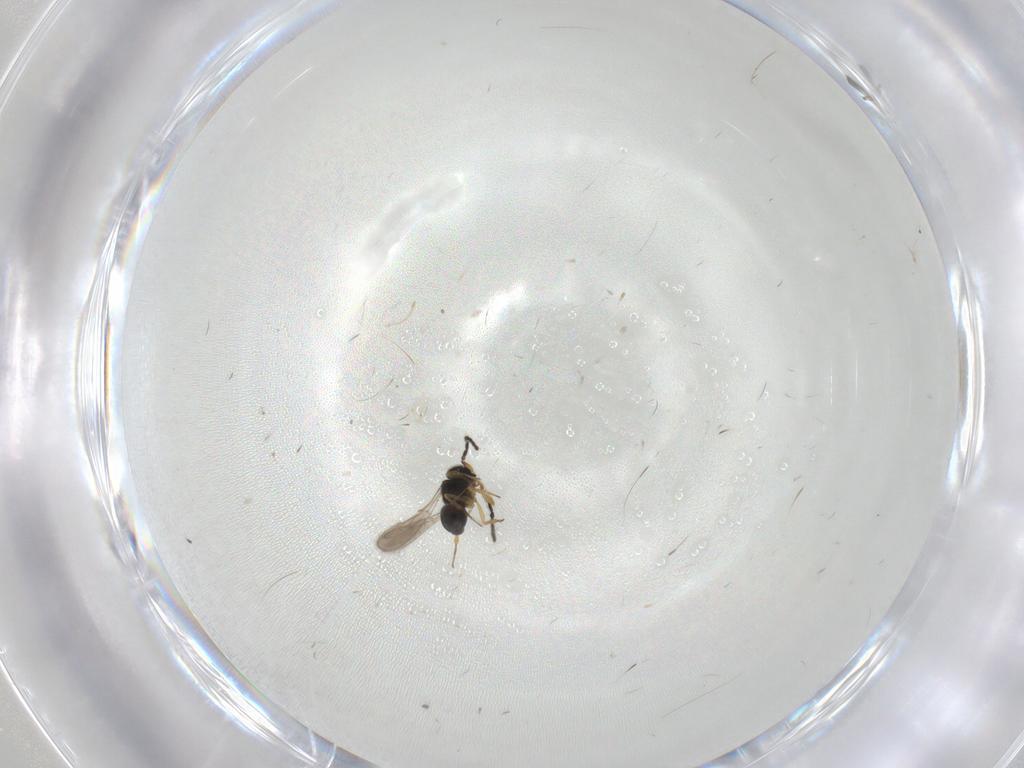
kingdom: Animalia
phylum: Arthropoda
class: Insecta
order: Hymenoptera
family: Scelionidae
